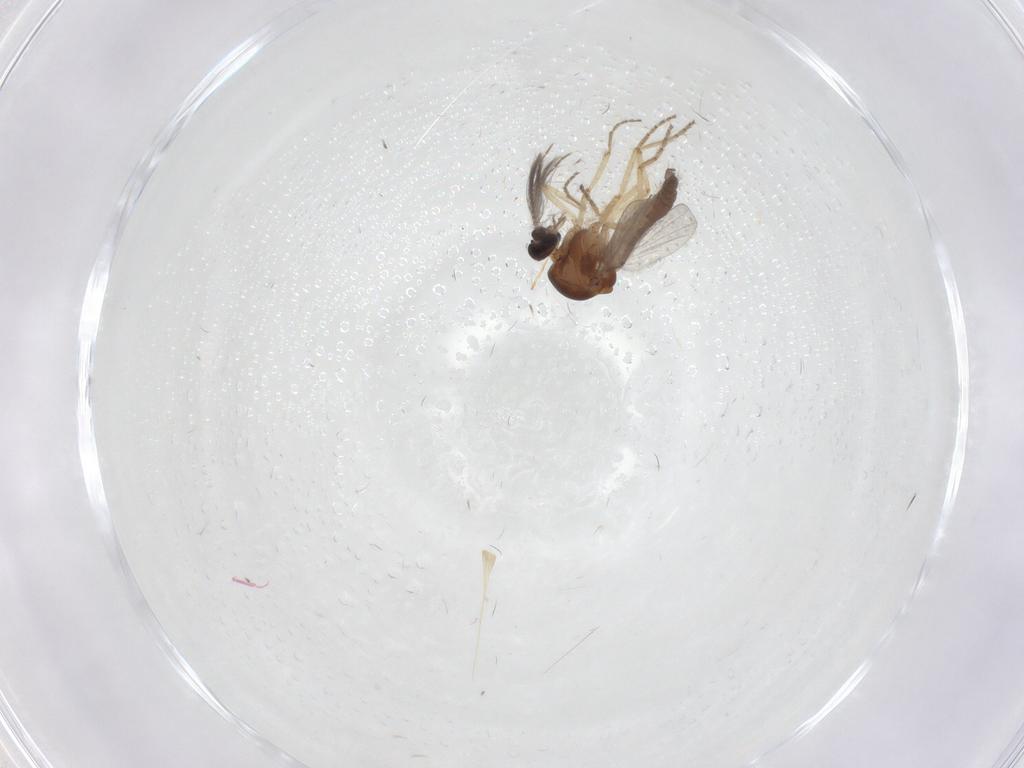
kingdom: Animalia
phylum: Arthropoda
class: Insecta
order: Diptera
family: Ceratopogonidae
